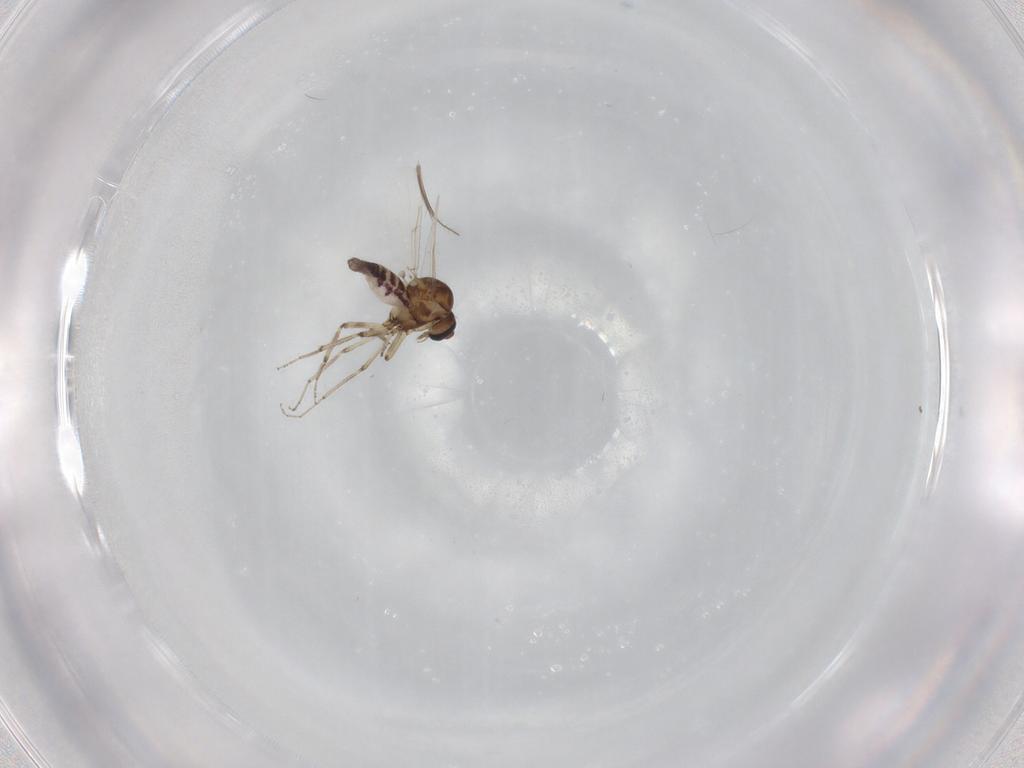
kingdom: Animalia
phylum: Arthropoda
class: Insecta
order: Diptera
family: Ceratopogonidae
